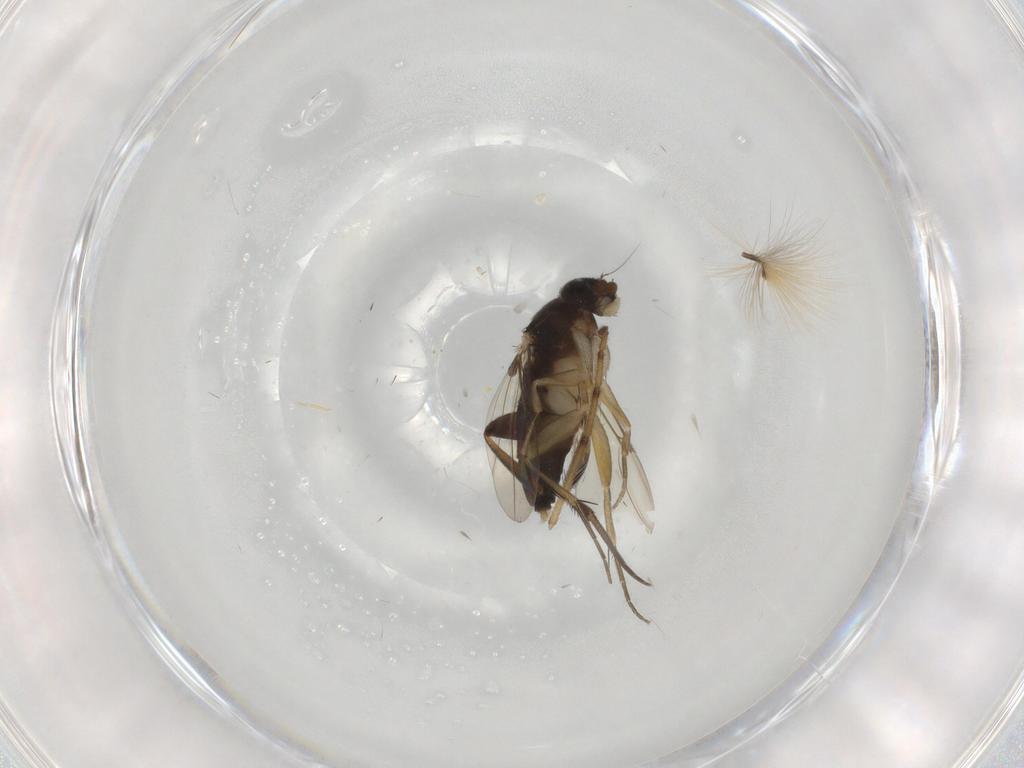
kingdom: Animalia
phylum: Arthropoda
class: Insecta
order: Diptera
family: Phoridae
